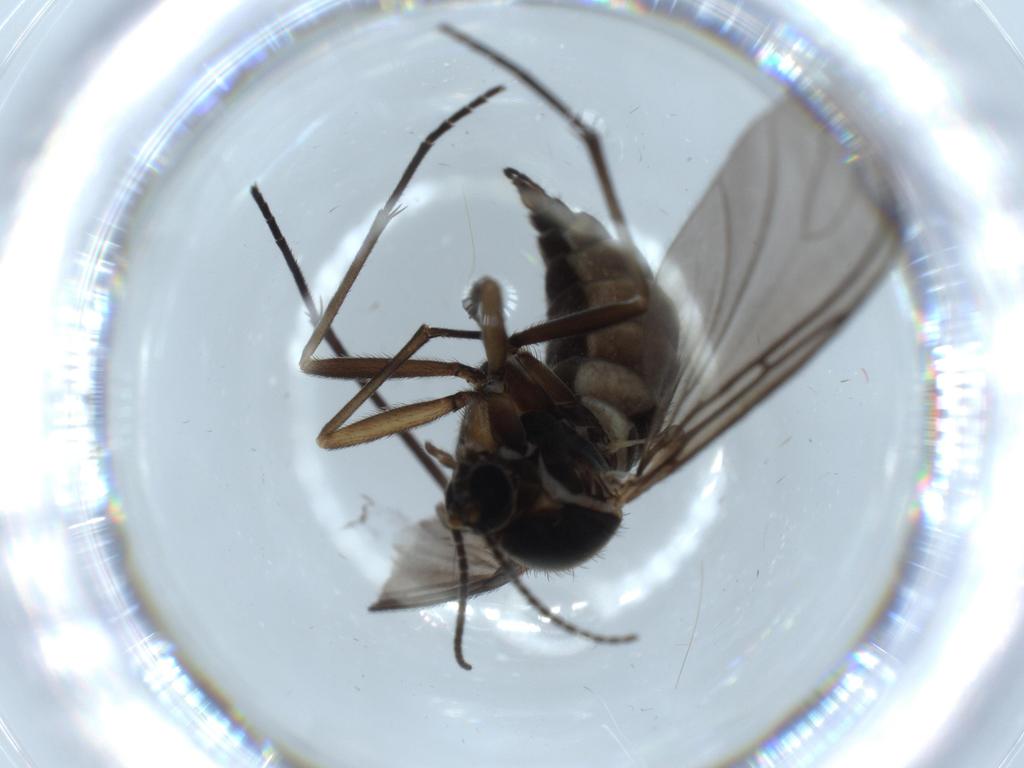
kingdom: Animalia
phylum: Arthropoda
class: Insecta
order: Diptera
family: Sciaridae
